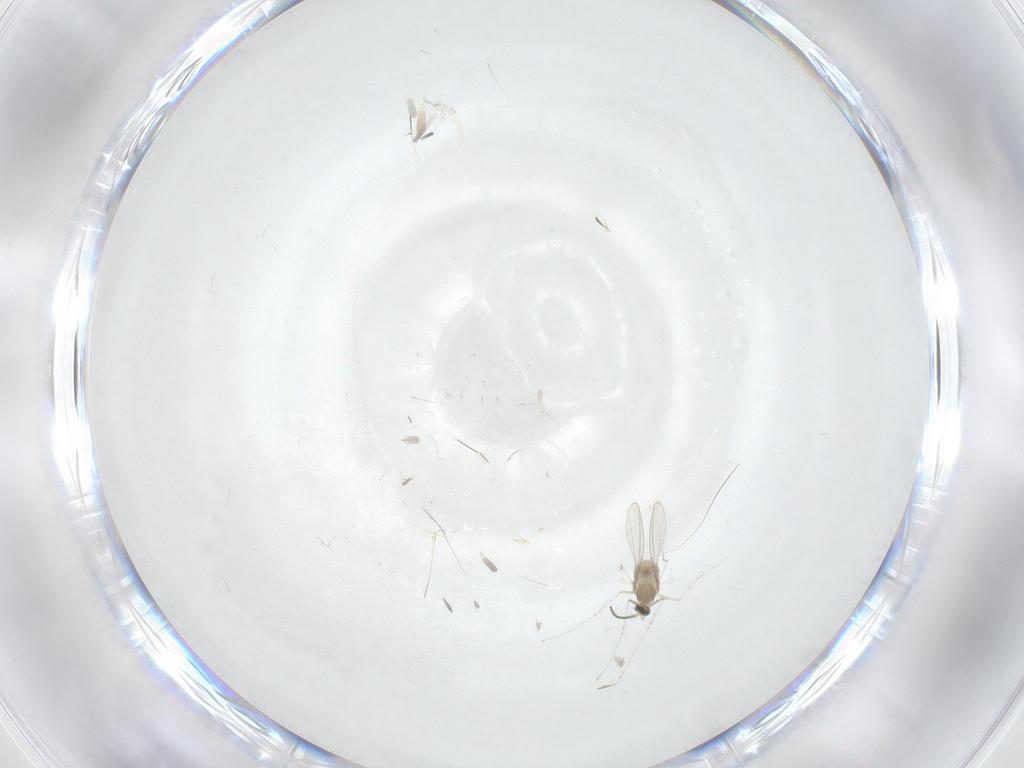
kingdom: Animalia
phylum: Arthropoda
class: Insecta
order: Diptera
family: Cecidomyiidae
